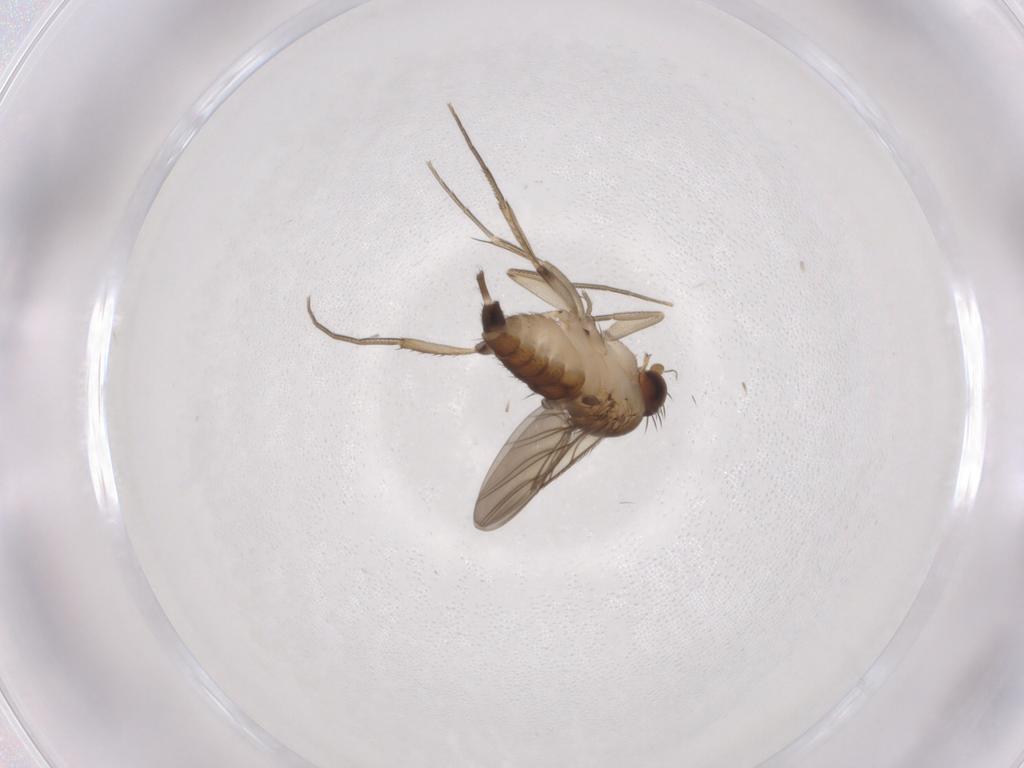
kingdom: Animalia
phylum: Arthropoda
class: Insecta
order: Diptera
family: Phoridae
